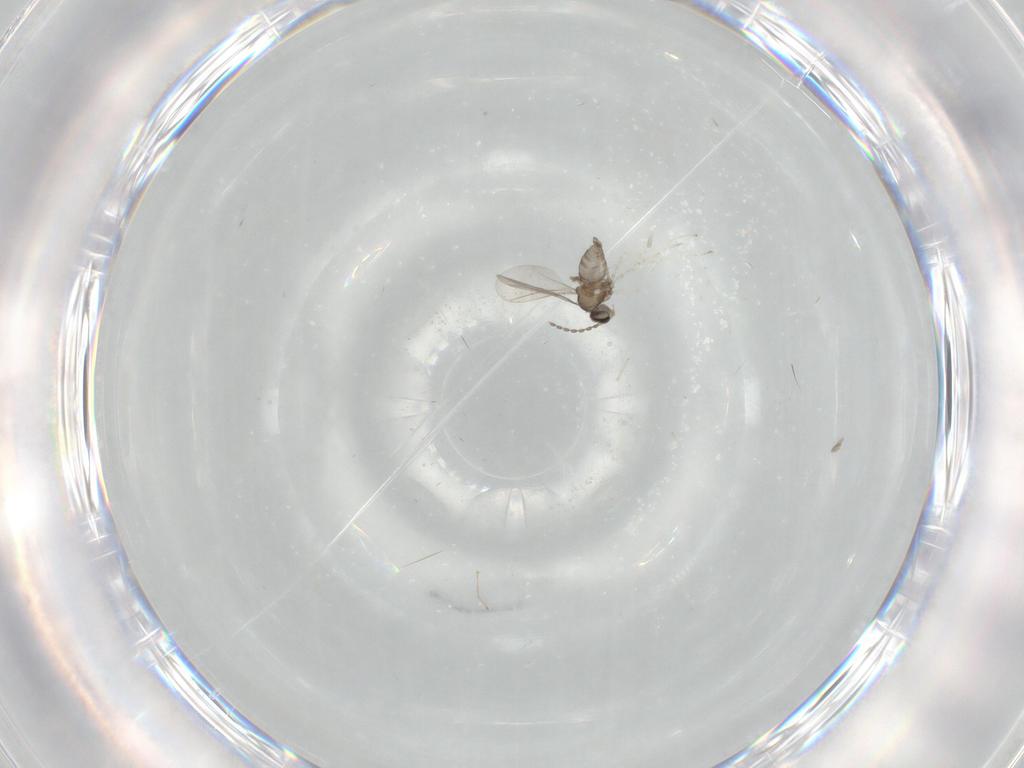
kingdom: Animalia
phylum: Arthropoda
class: Insecta
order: Diptera
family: Cecidomyiidae
